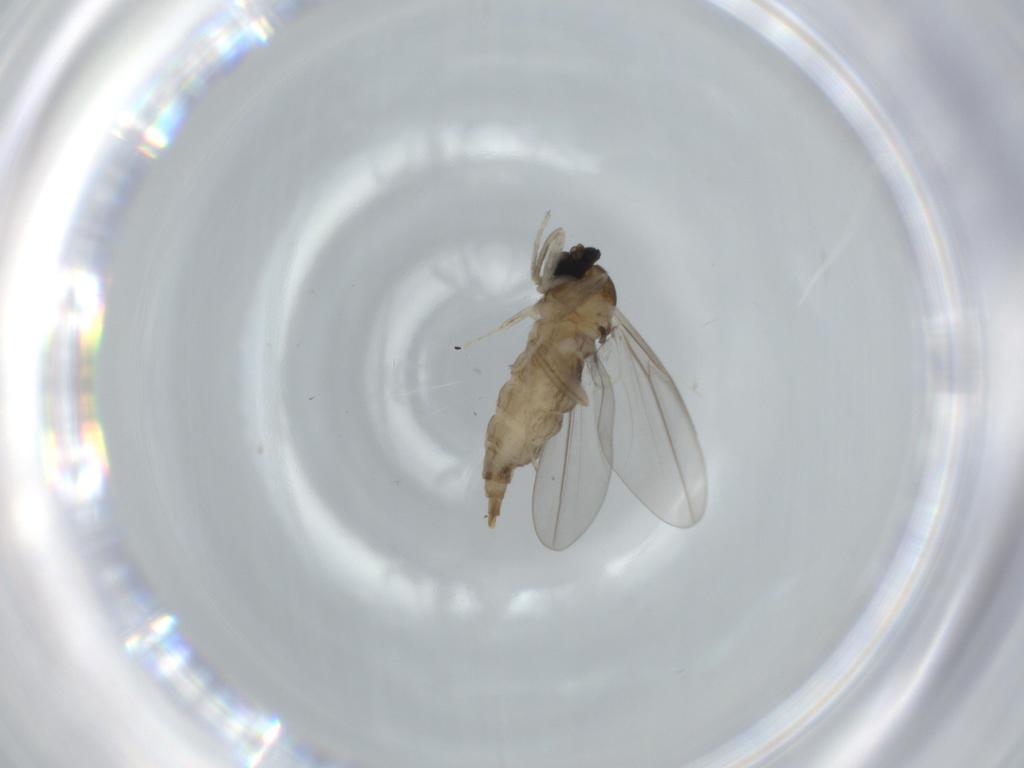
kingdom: Animalia
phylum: Arthropoda
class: Insecta
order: Diptera
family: Cecidomyiidae
